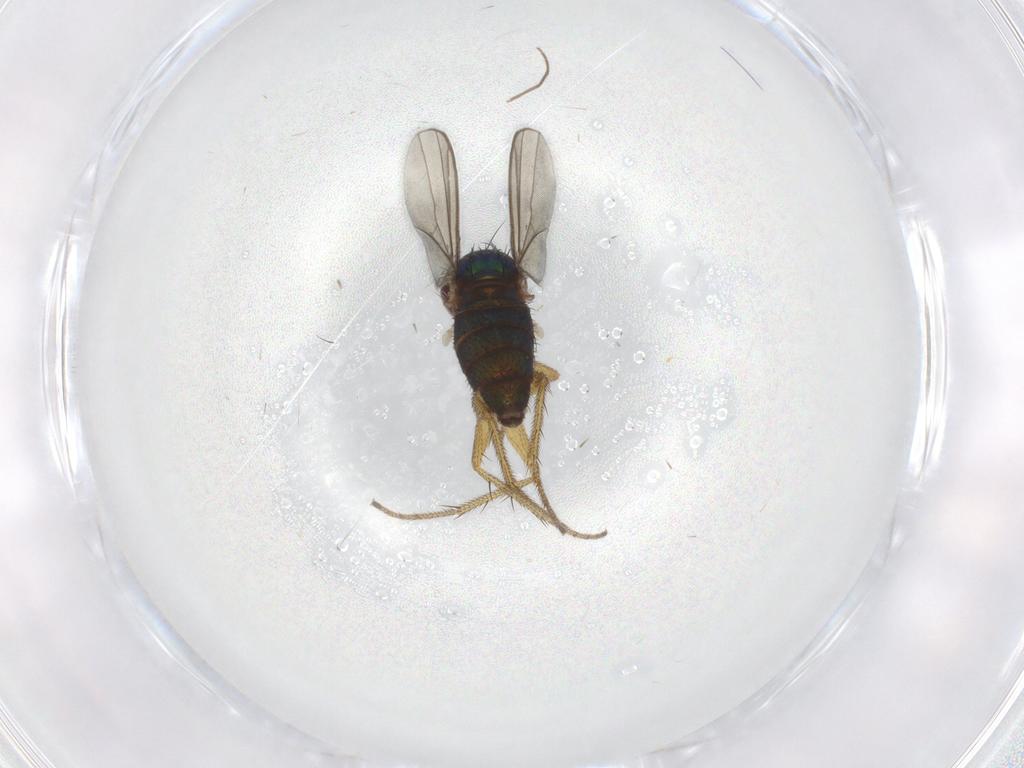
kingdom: Animalia
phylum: Arthropoda
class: Insecta
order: Diptera
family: Dolichopodidae
